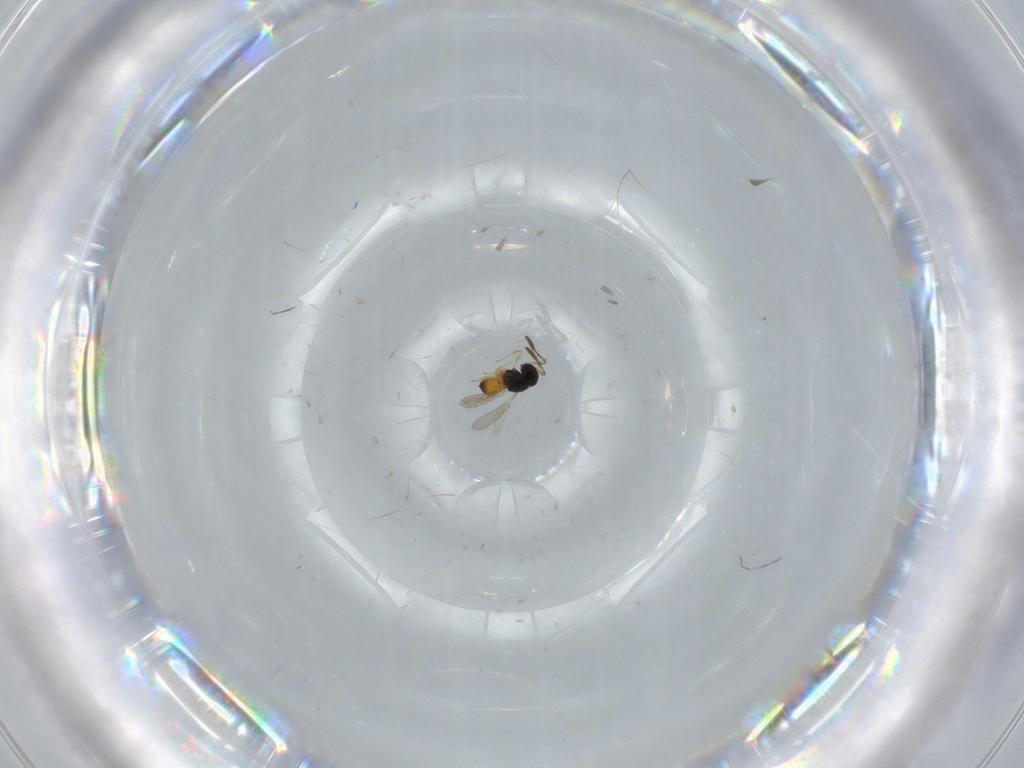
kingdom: Animalia
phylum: Arthropoda
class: Insecta
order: Hymenoptera
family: Scelionidae
